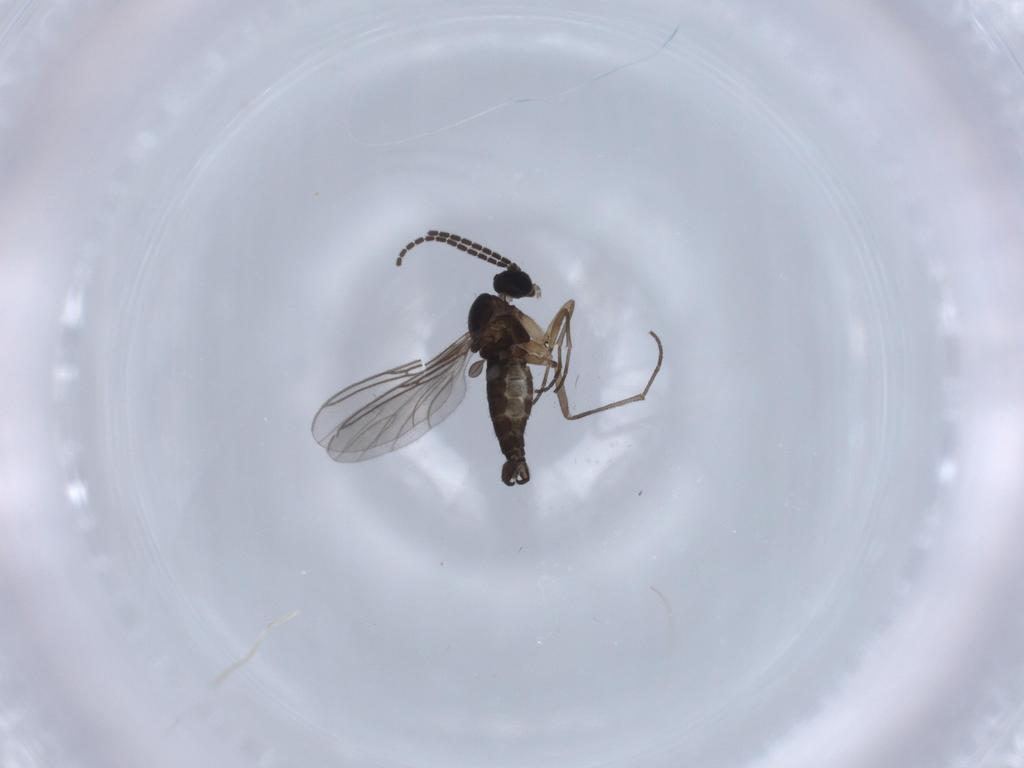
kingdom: Animalia
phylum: Arthropoda
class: Insecta
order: Diptera
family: Sciaridae
